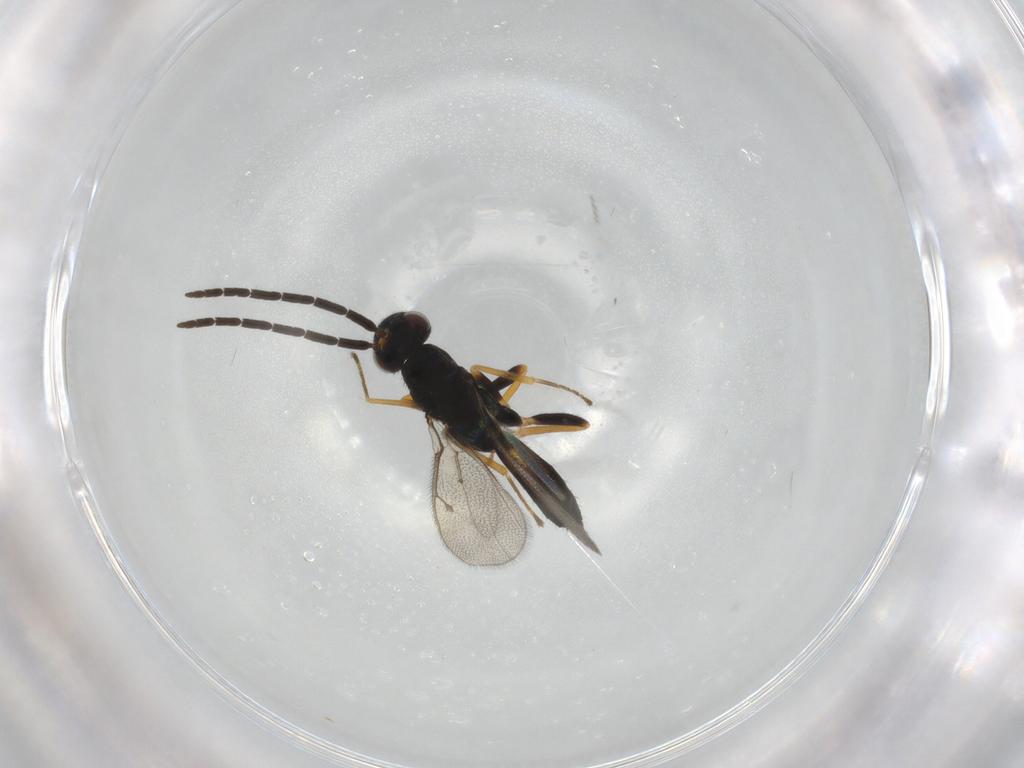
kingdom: Animalia
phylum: Arthropoda
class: Insecta
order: Hymenoptera
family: Pteromalidae
